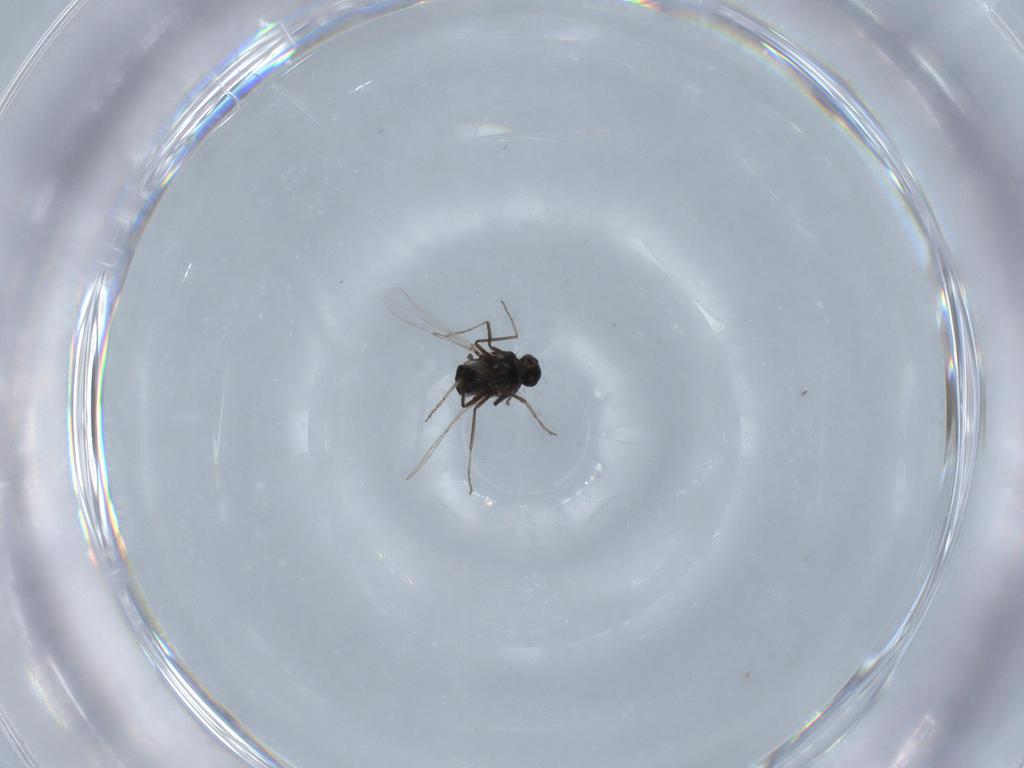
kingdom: Animalia
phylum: Arthropoda
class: Insecta
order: Diptera
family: Ceratopogonidae
